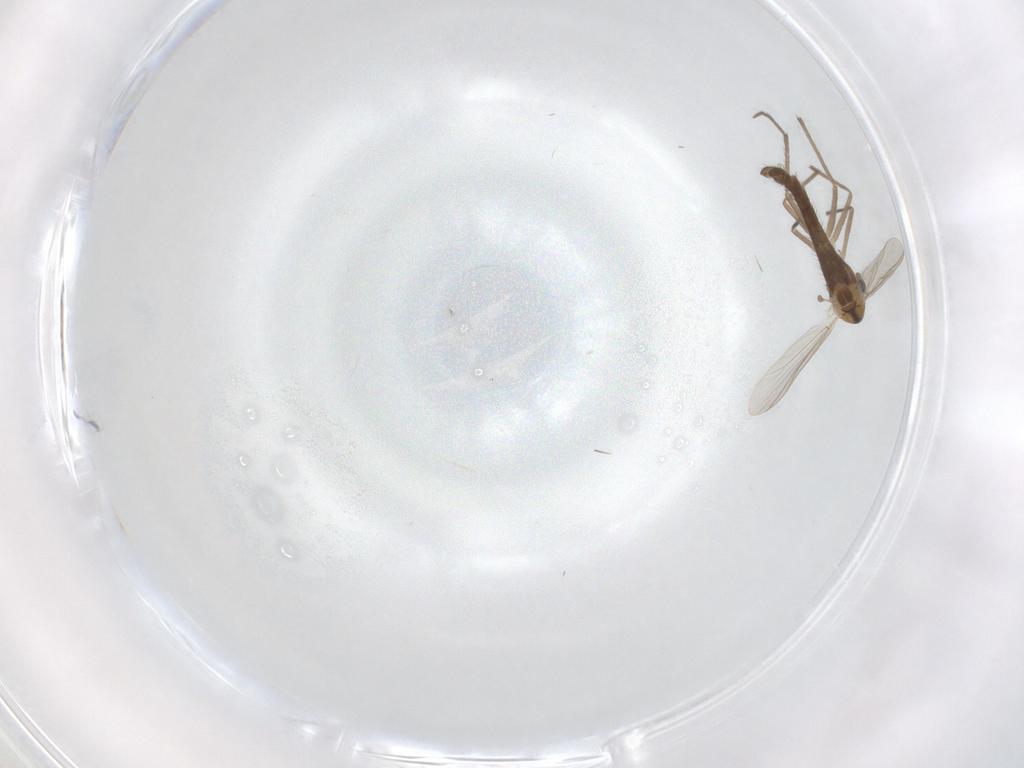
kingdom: Animalia
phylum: Arthropoda
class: Insecta
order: Diptera
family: Chironomidae
